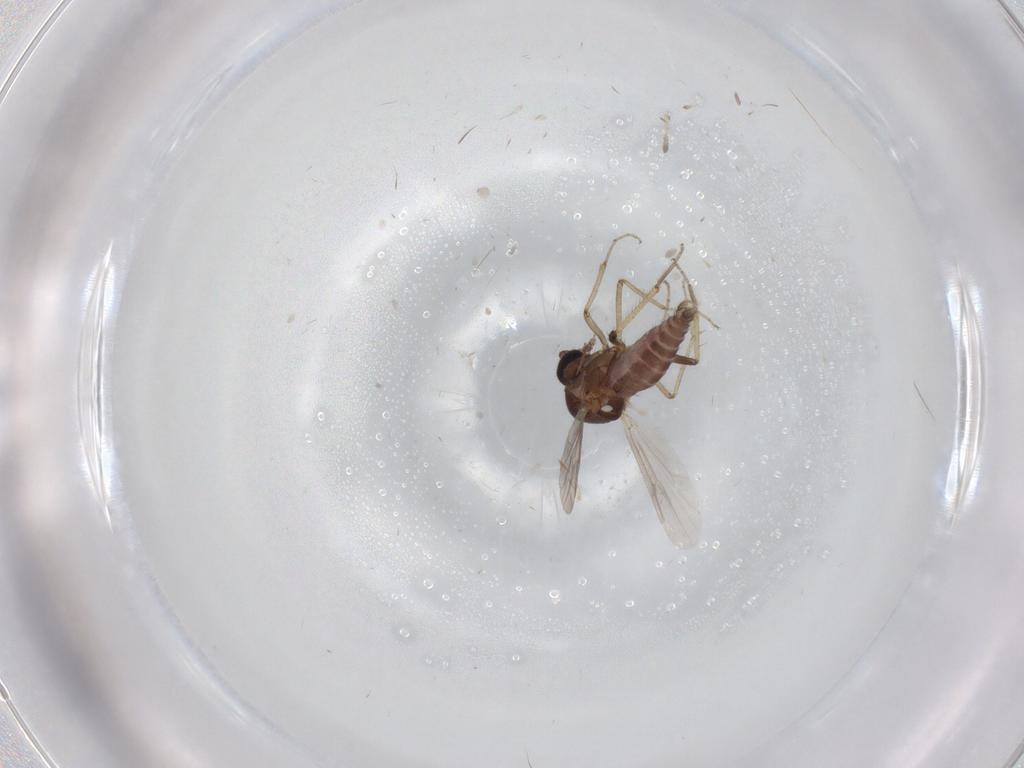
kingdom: Animalia
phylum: Arthropoda
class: Insecta
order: Diptera
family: Ceratopogonidae
